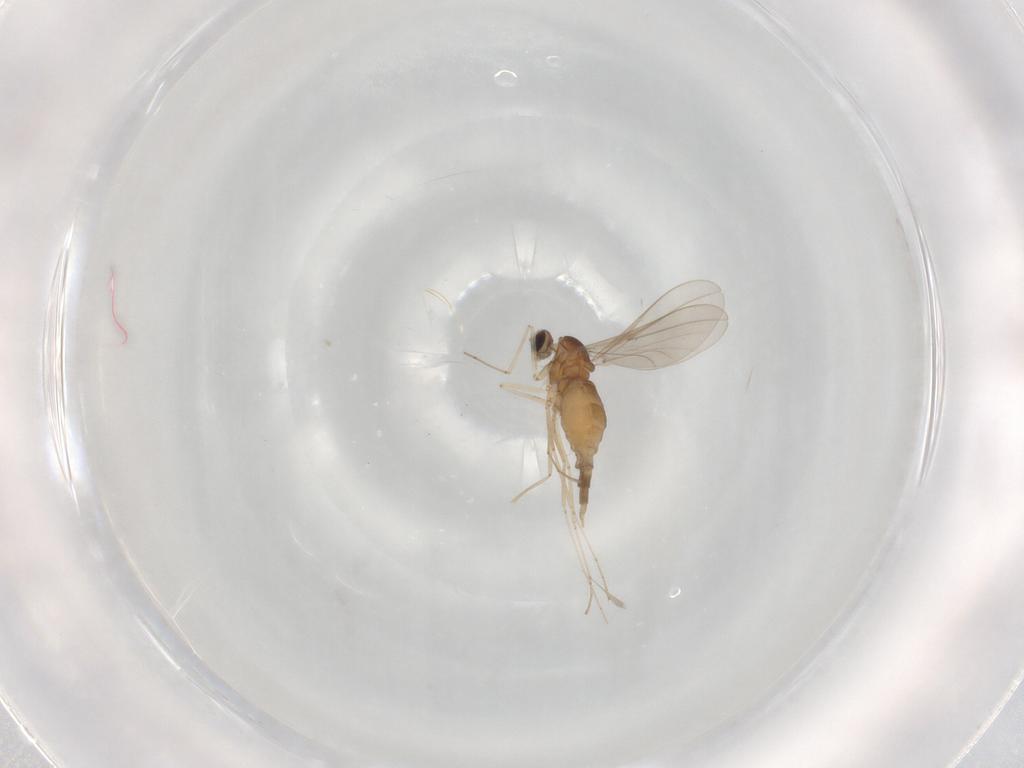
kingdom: Animalia
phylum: Arthropoda
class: Insecta
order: Diptera
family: Cecidomyiidae
